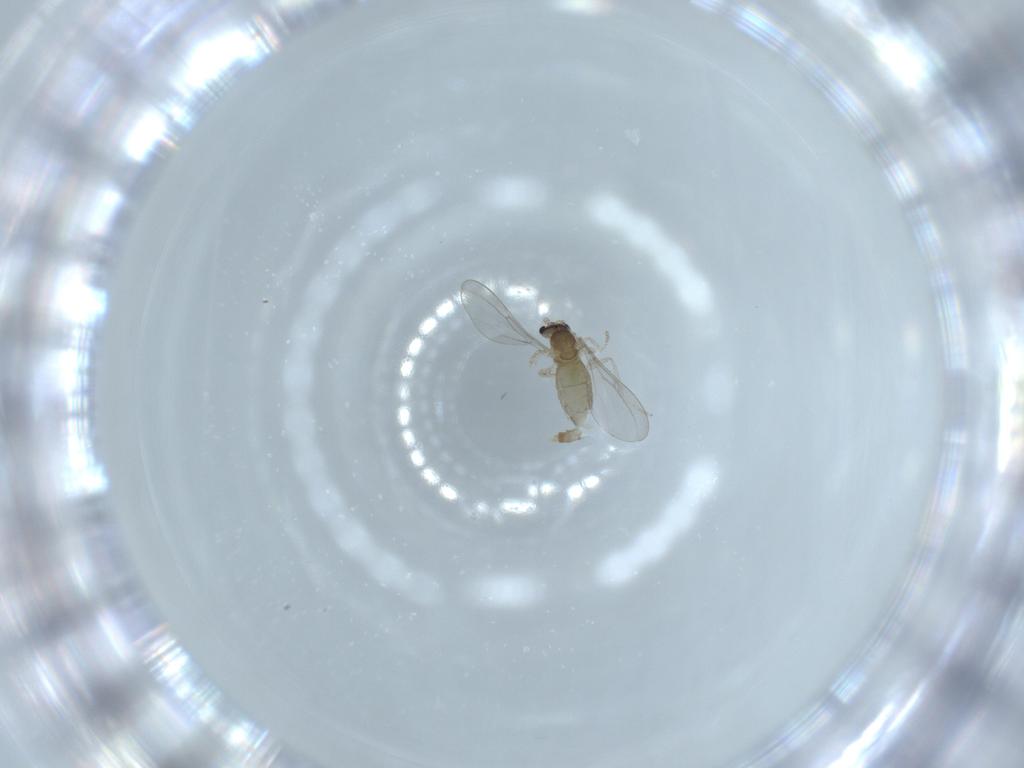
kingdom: Animalia
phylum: Arthropoda
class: Insecta
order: Diptera
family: Cecidomyiidae
